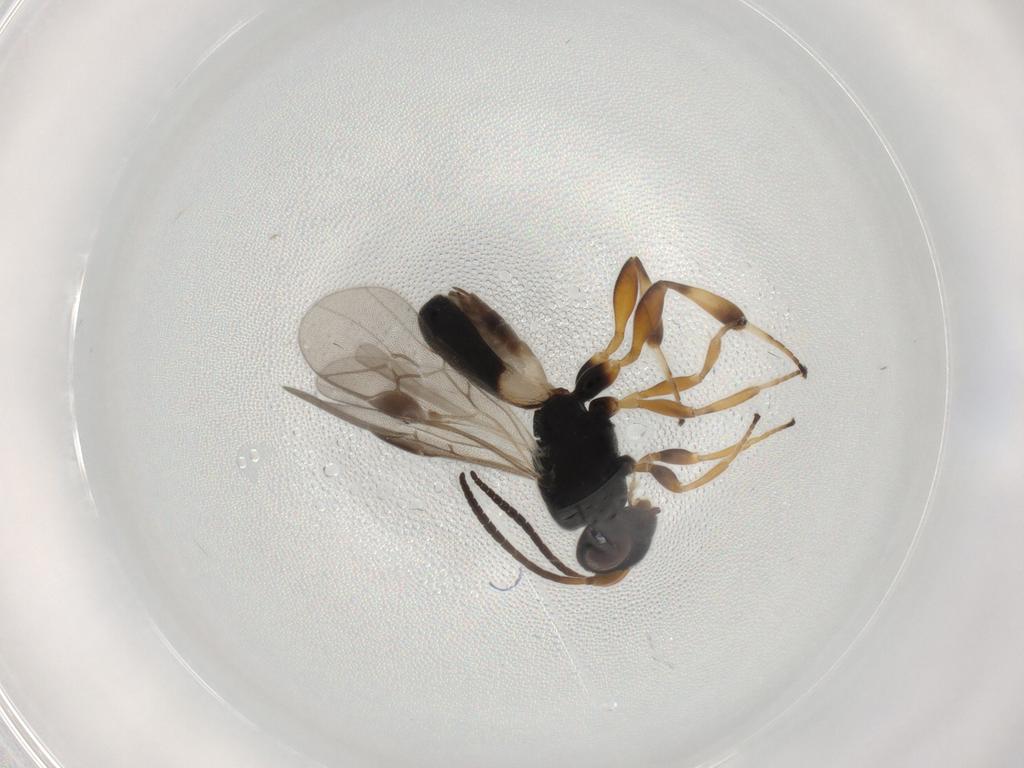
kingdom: Animalia
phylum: Arthropoda
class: Insecta
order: Hymenoptera
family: Braconidae
